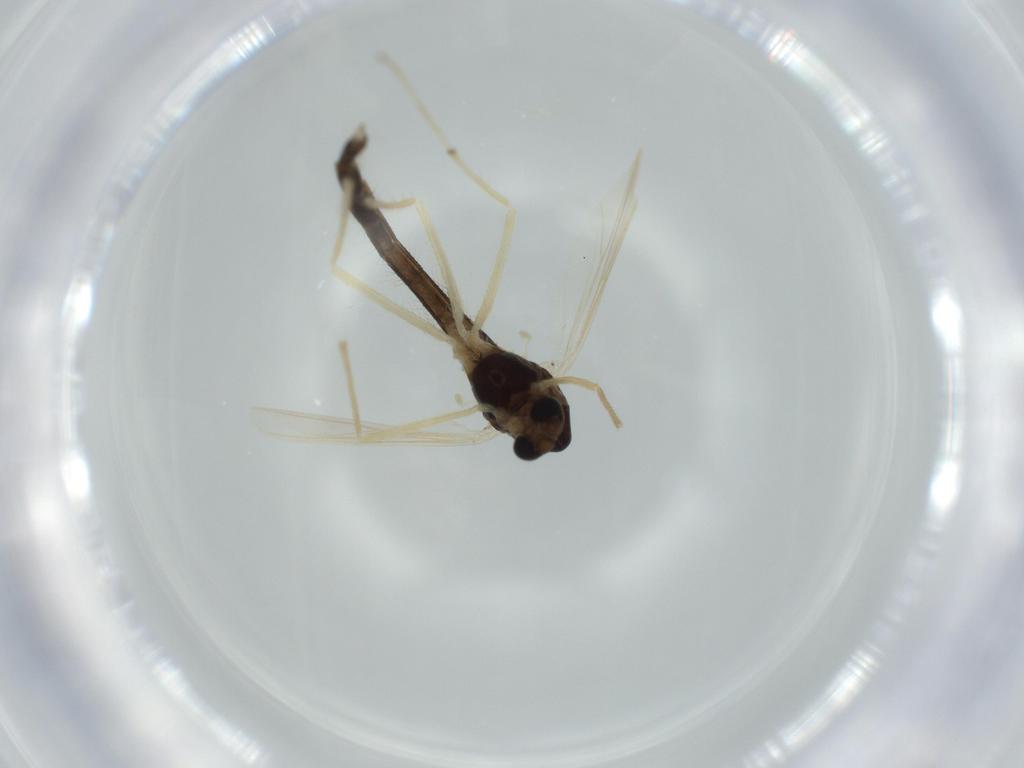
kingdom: Animalia
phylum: Arthropoda
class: Insecta
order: Diptera
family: Chironomidae
